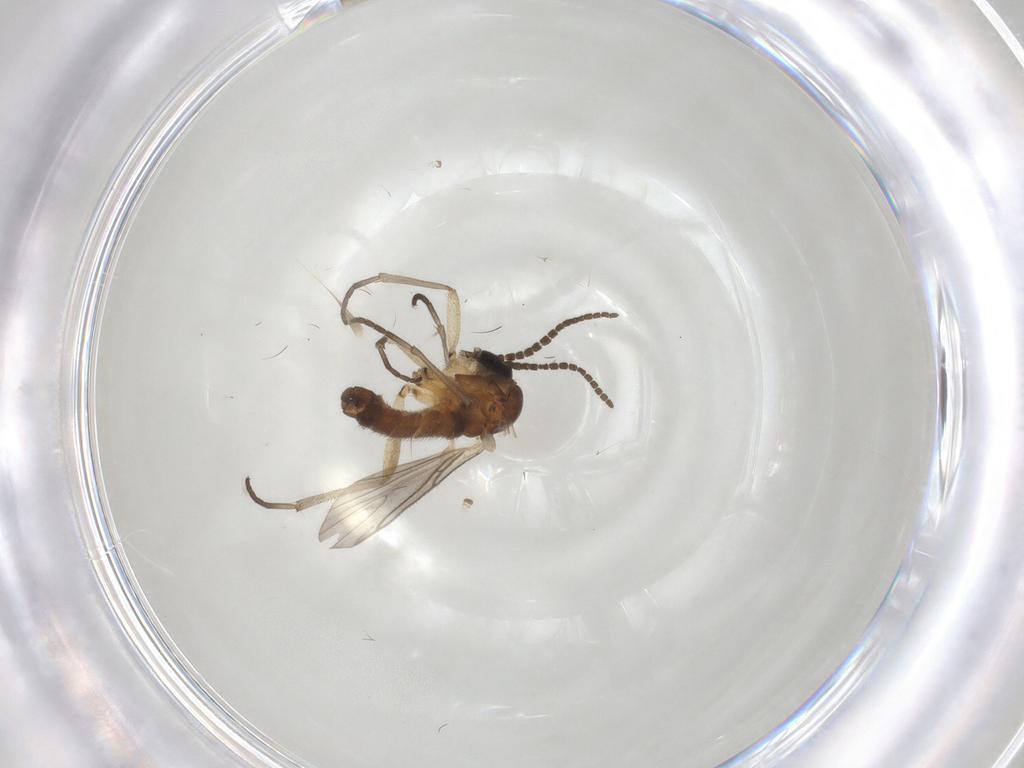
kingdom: Animalia
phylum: Arthropoda
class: Insecta
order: Diptera
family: Sciaridae
